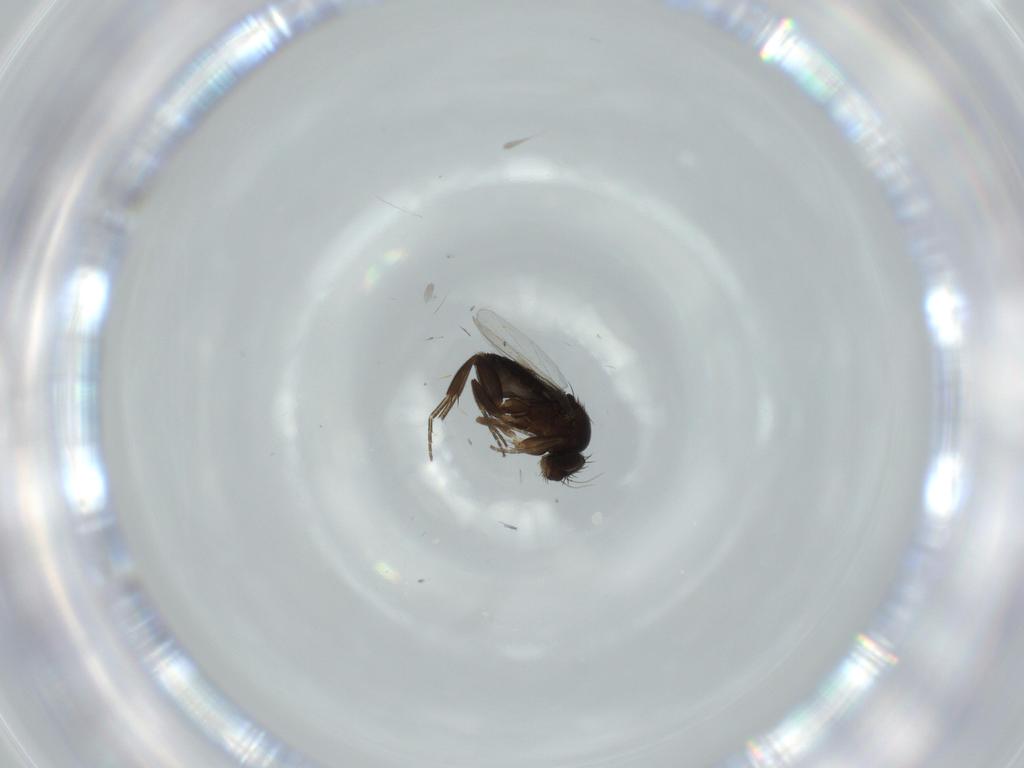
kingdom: Animalia
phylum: Arthropoda
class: Insecta
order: Diptera
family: Phoridae
